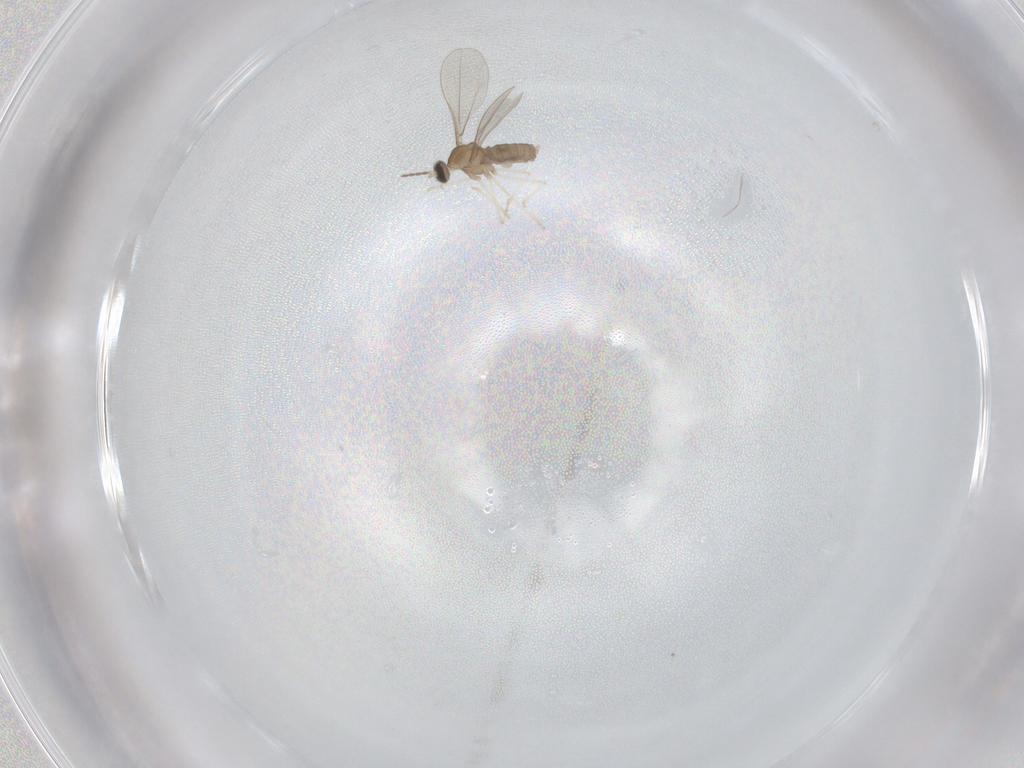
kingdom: Animalia
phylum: Arthropoda
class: Insecta
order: Diptera
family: Cecidomyiidae
